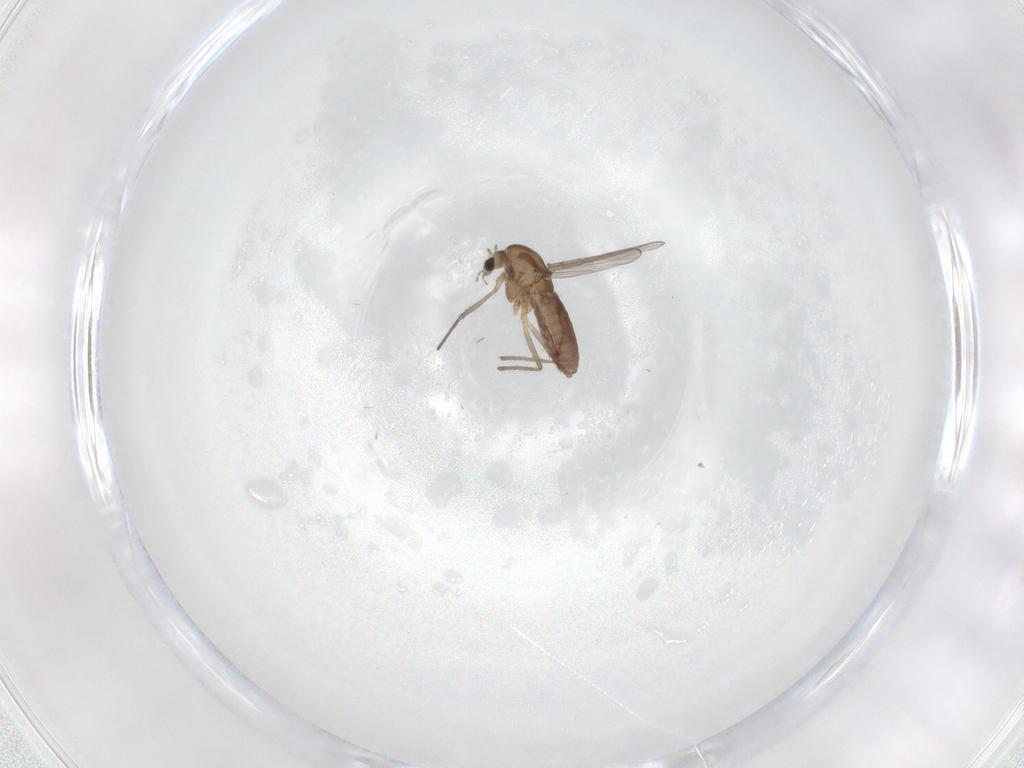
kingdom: Animalia
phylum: Arthropoda
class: Insecta
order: Diptera
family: Chironomidae
